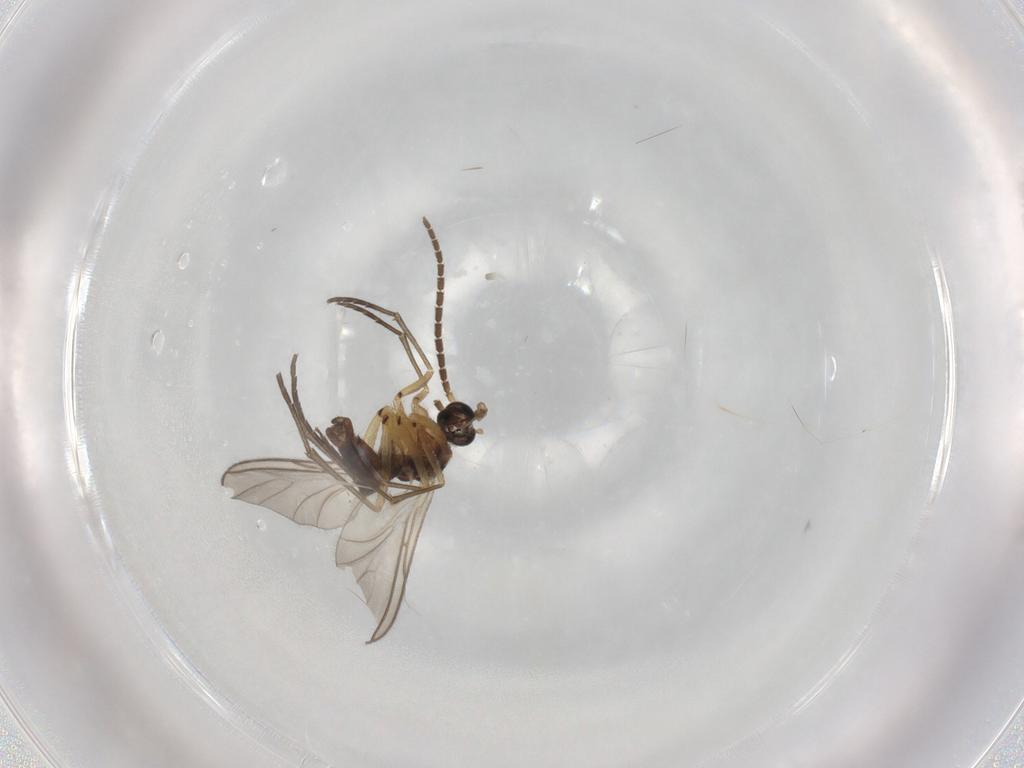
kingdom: Animalia
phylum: Arthropoda
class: Insecta
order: Diptera
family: Sciaridae
